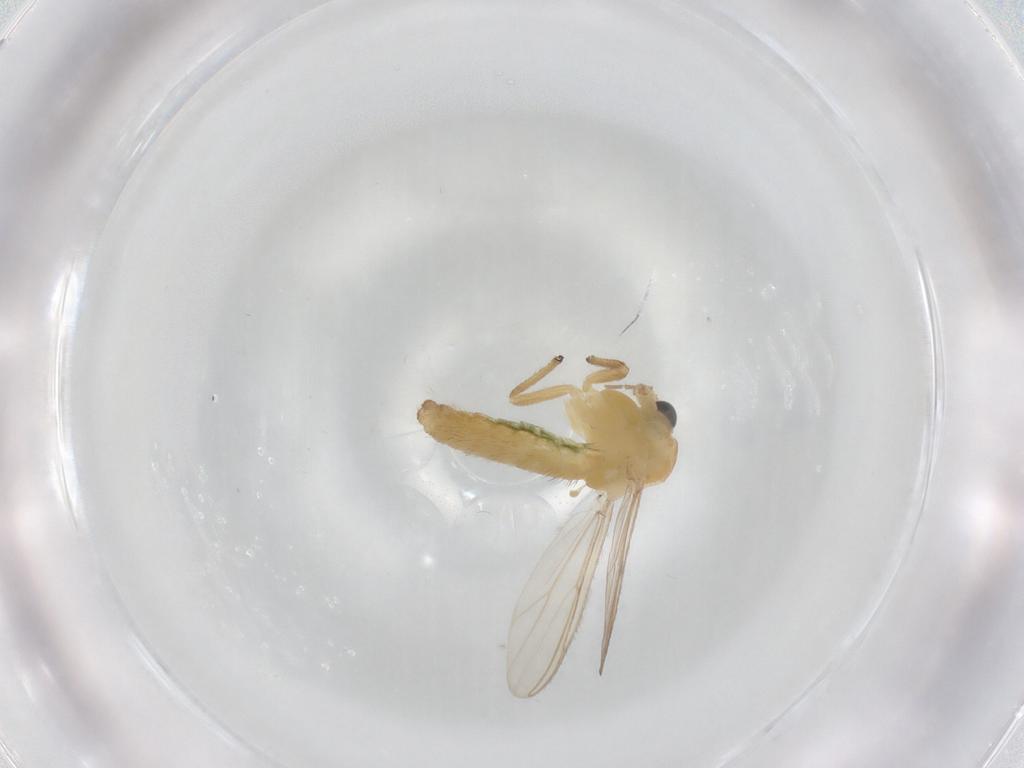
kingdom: Animalia
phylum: Arthropoda
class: Insecta
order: Diptera
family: Chironomidae
